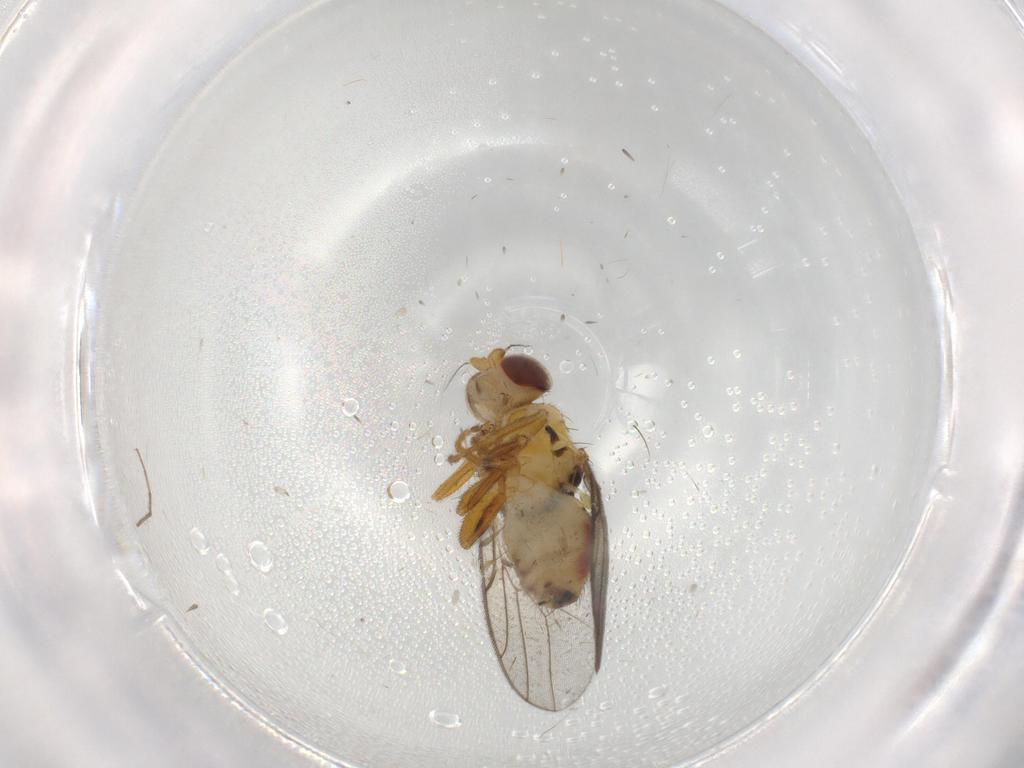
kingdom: Animalia
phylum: Arthropoda
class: Insecta
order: Diptera
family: Chloropidae
